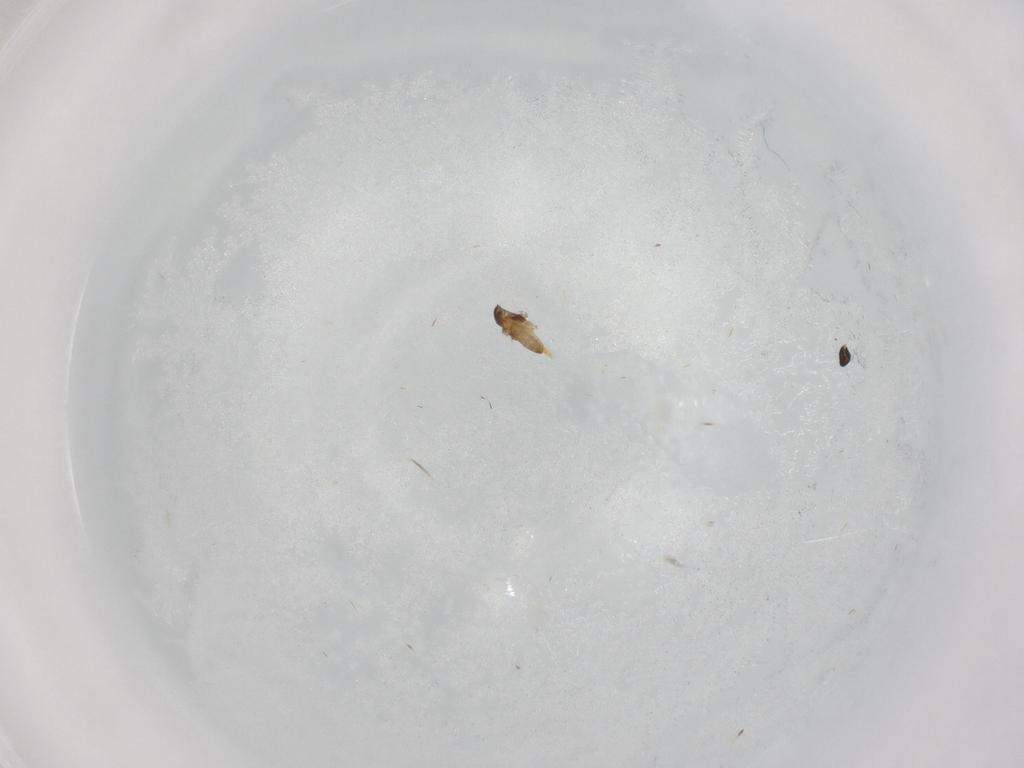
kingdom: Animalia
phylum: Arthropoda
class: Insecta
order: Diptera
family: Cecidomyiidae
